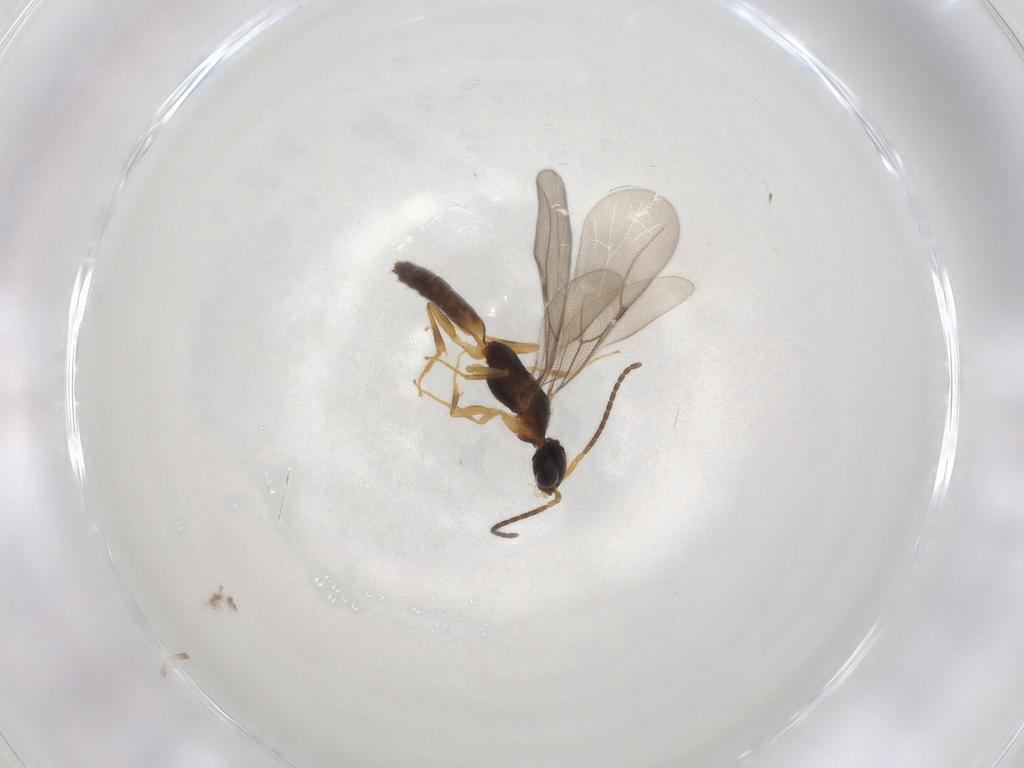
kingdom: Animalia
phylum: Arthropoda
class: Insecta
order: Hymenoptera
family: Bethylidae
